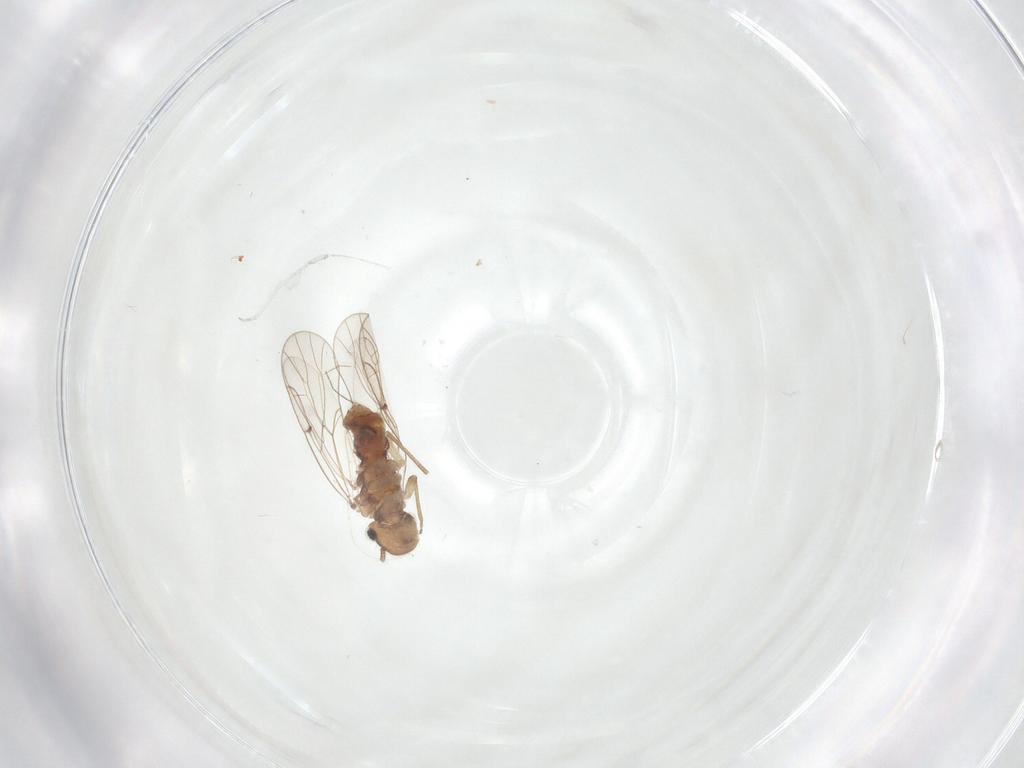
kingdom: Animalia
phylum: Arthropoda
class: Insecta
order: Psocodea
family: Ectopsocidae
